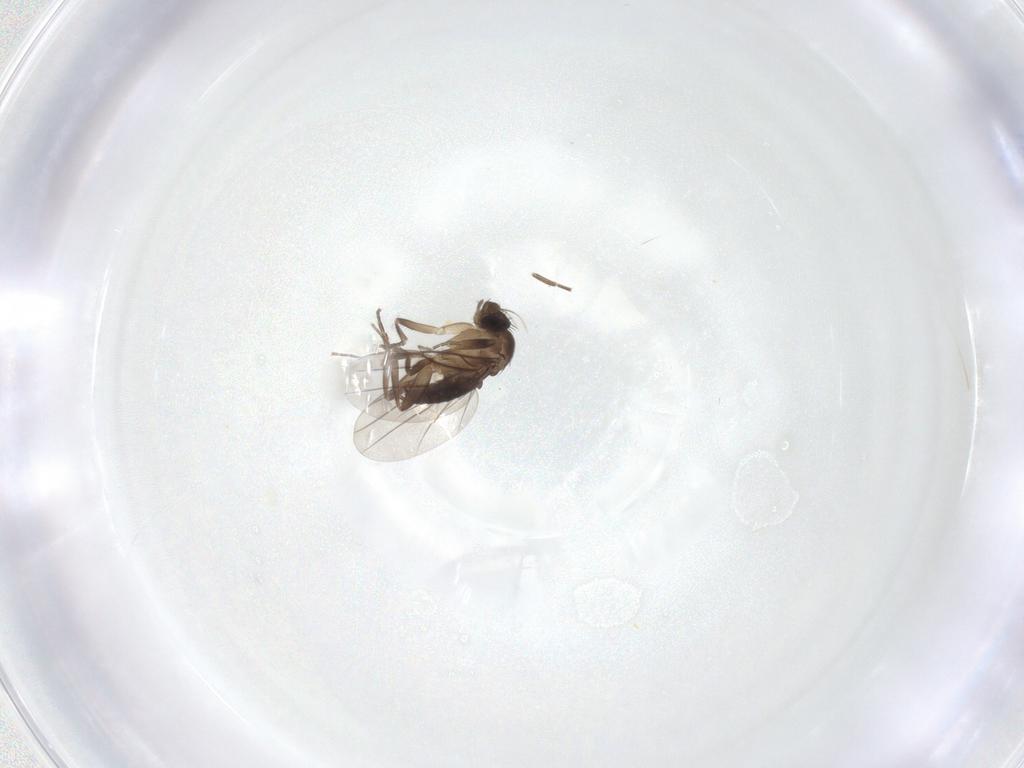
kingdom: Animalia
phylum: Arthropoda
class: Insecta
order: Diptera
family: Phoridae
